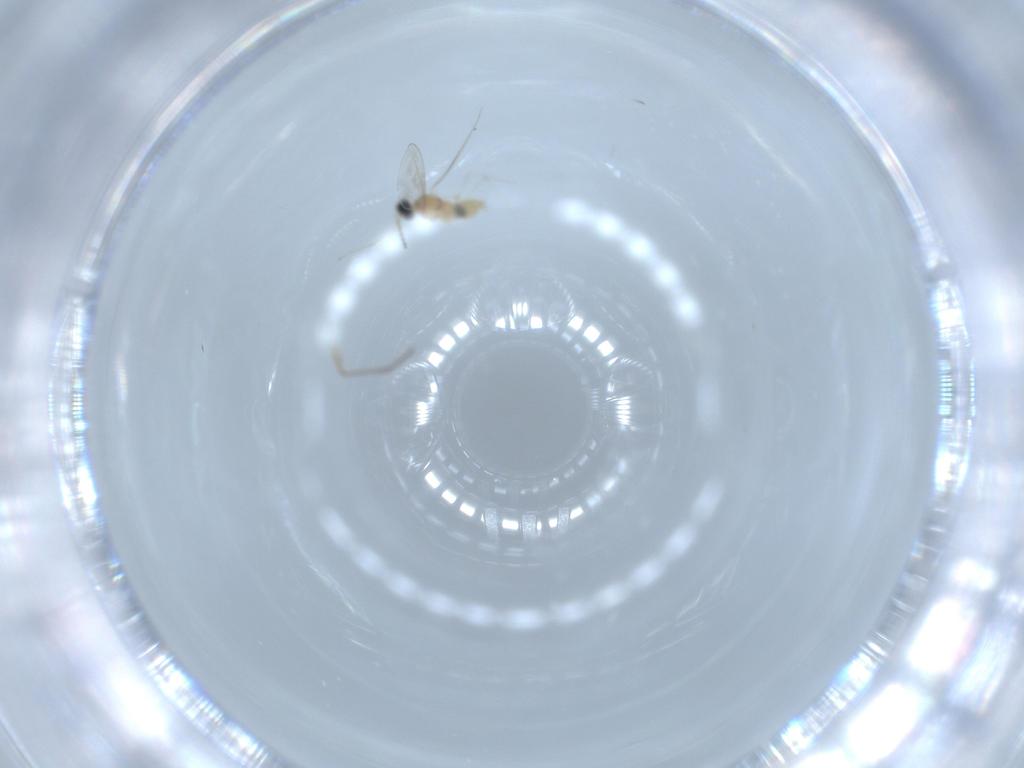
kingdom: Animalia
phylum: Arthropoda
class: Insecta
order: Diptera
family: Cecidomyiidae
